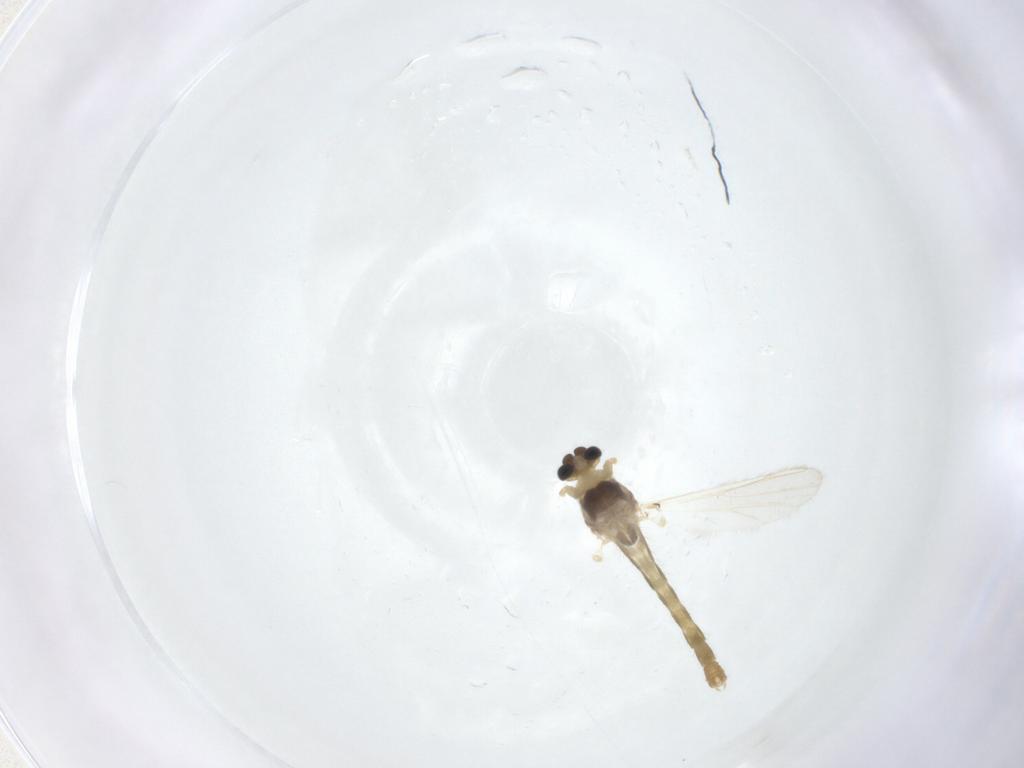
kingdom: Animalia
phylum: Arthropoda
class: Insecta
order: Diptera
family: Chironomidae
